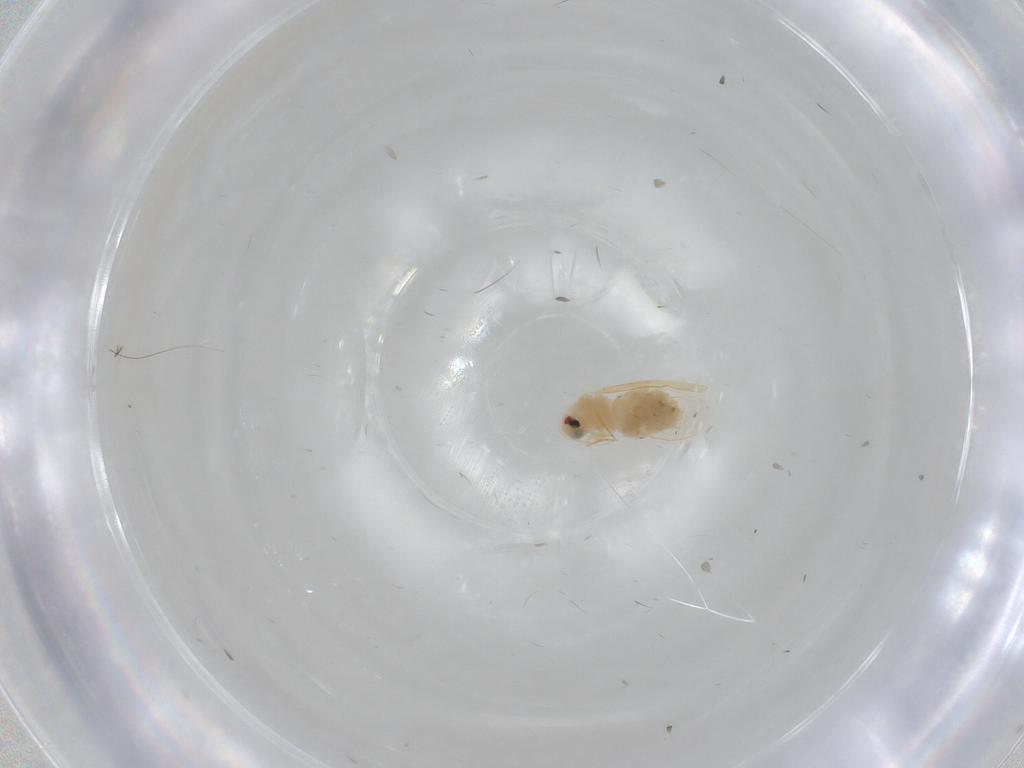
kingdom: Animalia
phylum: Arthropoda
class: Insecta
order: Hemiptera
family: Aleyrodidae
